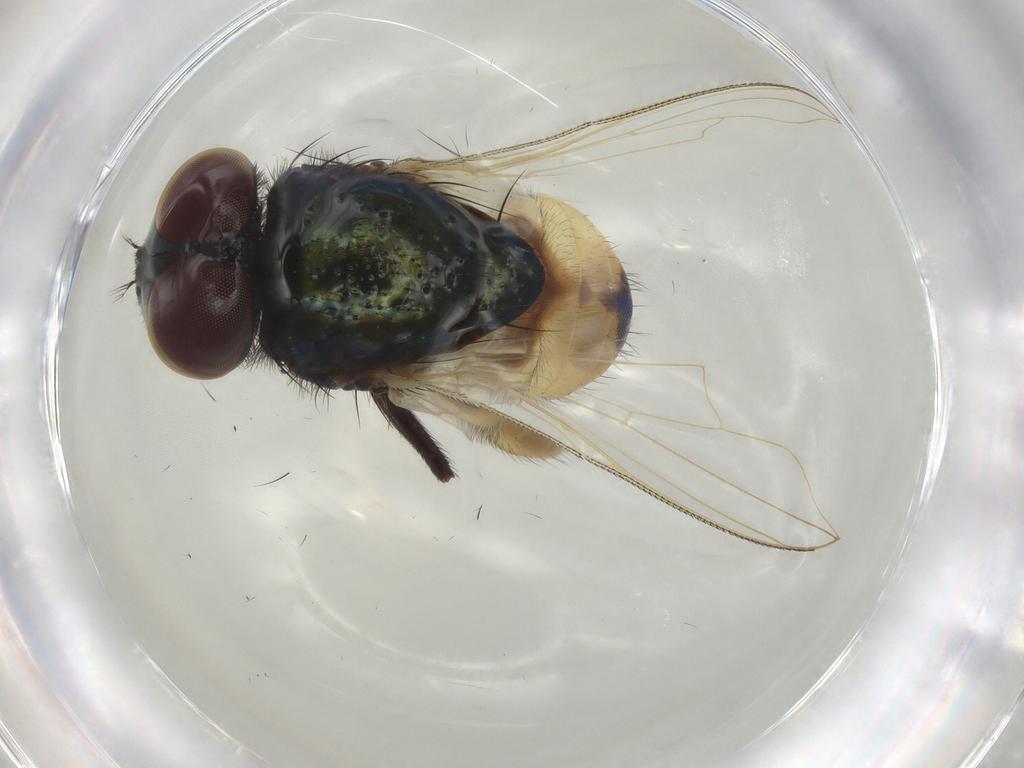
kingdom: Animalia
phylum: Arthropoda
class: Insecta
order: Diptera
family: Syrphidae
